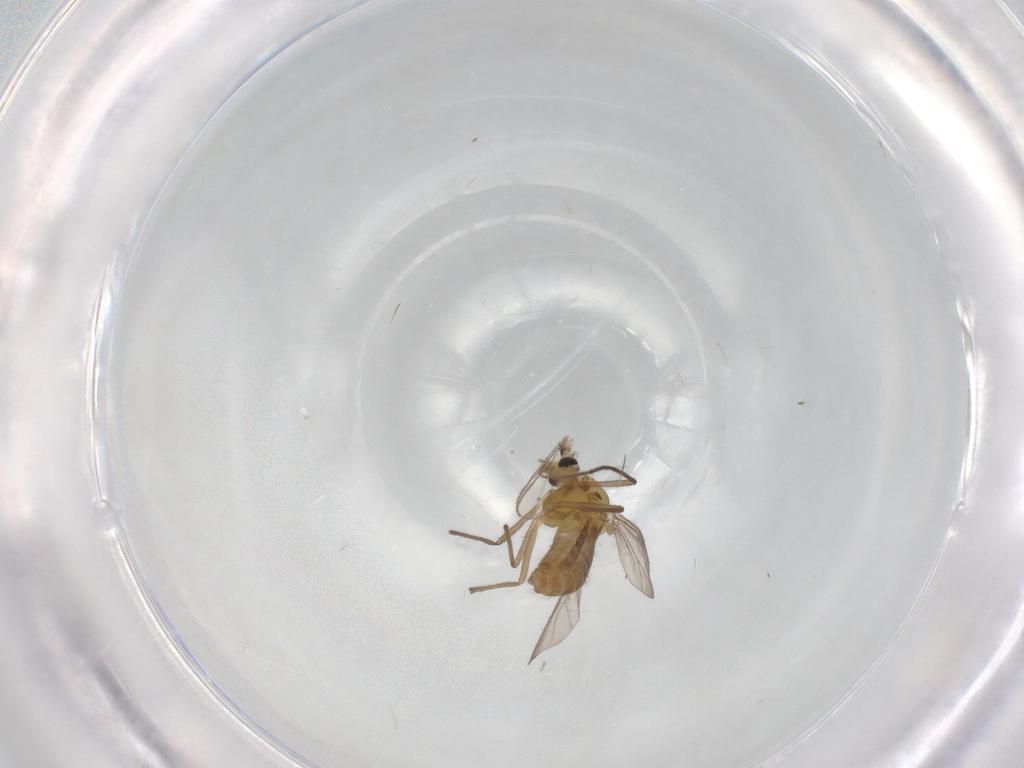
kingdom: Animalia
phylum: Arthropoda
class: Insecta
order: Diptera
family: Chironomidae
